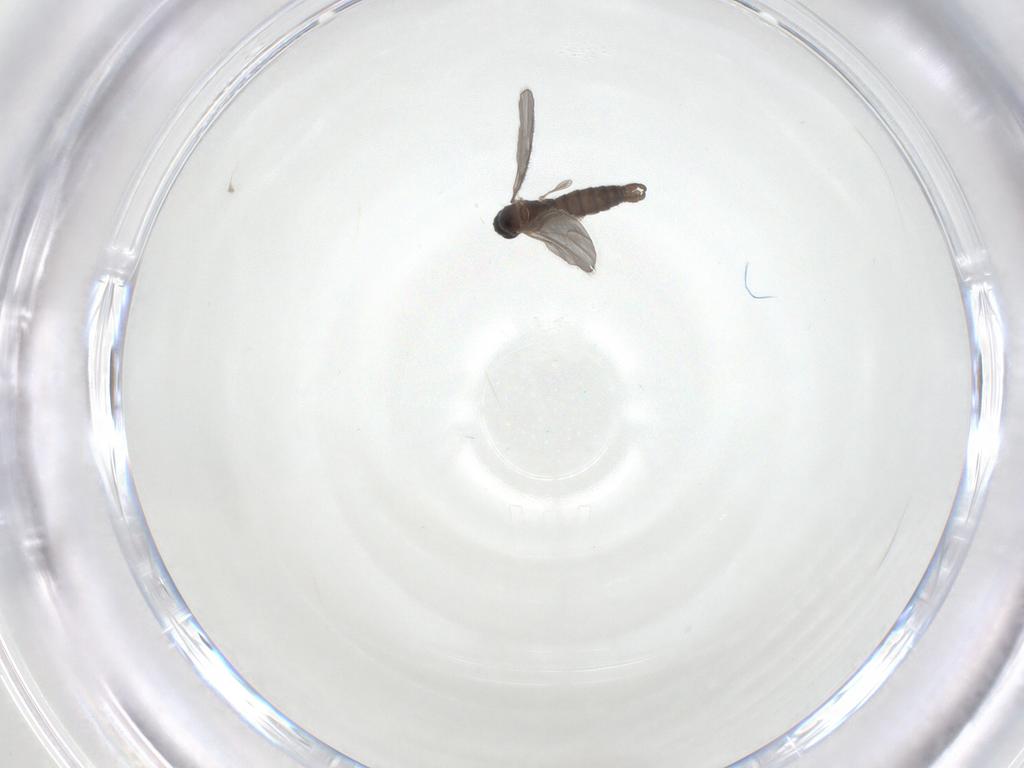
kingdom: Animalia
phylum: Arthropoda
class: Insecta
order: Diptera
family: Sciaridae
